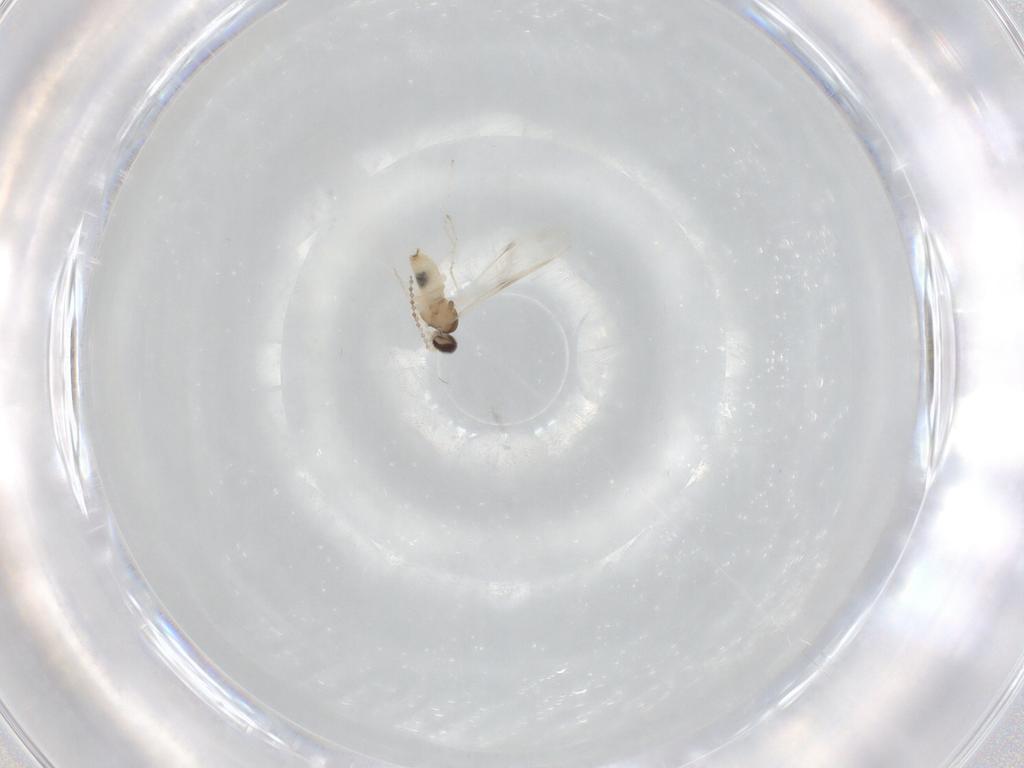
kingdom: Animalia
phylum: Arthropoda
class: Insecta
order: Diptera
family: Cecidomyiidae
